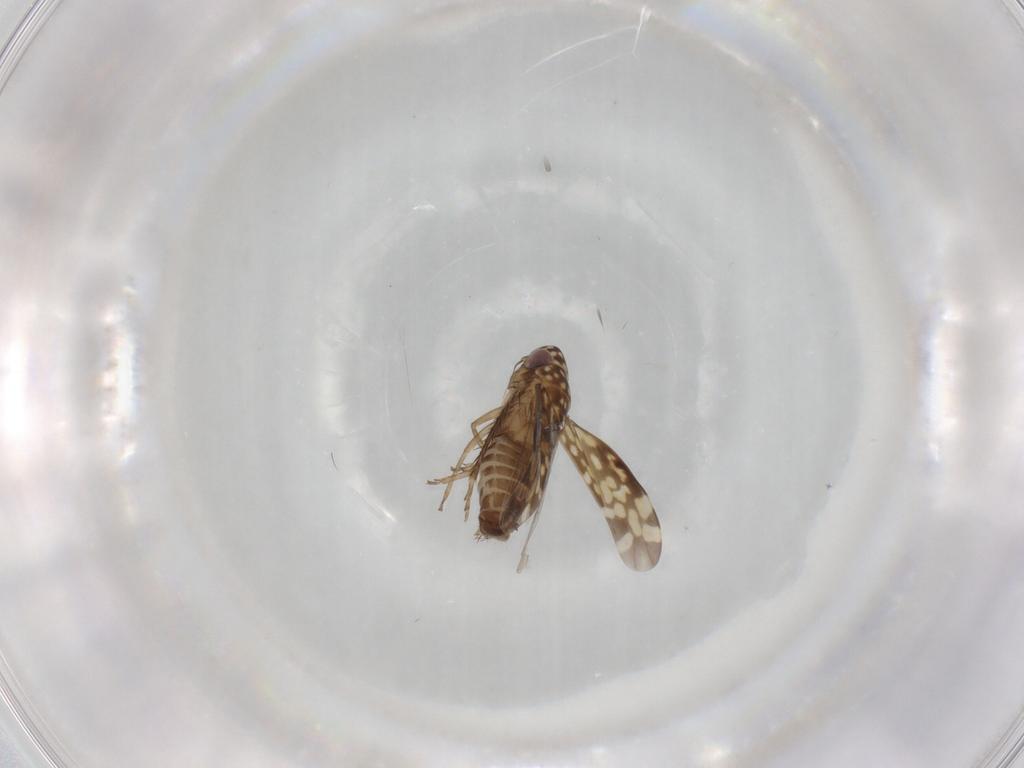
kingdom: Animalia
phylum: Arthropoda
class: Insecta
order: Hemiptera
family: Cicadellidae
